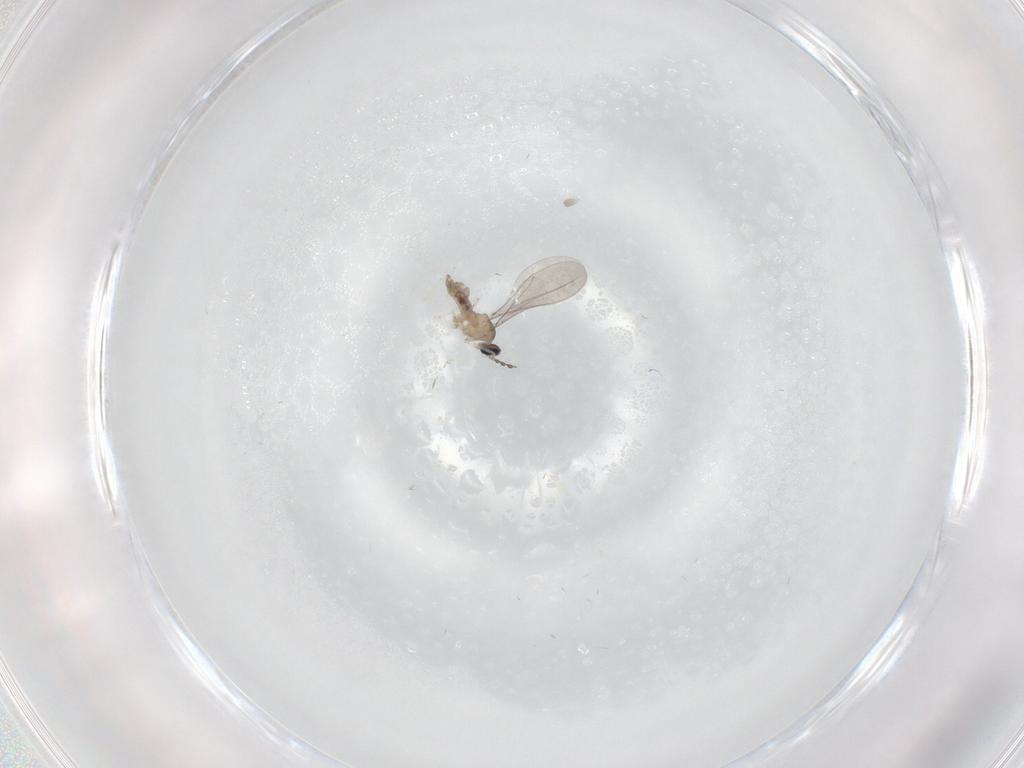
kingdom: Animalia
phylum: Arthropoda
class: Insecta
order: Diptera
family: Cecidomyiidae
